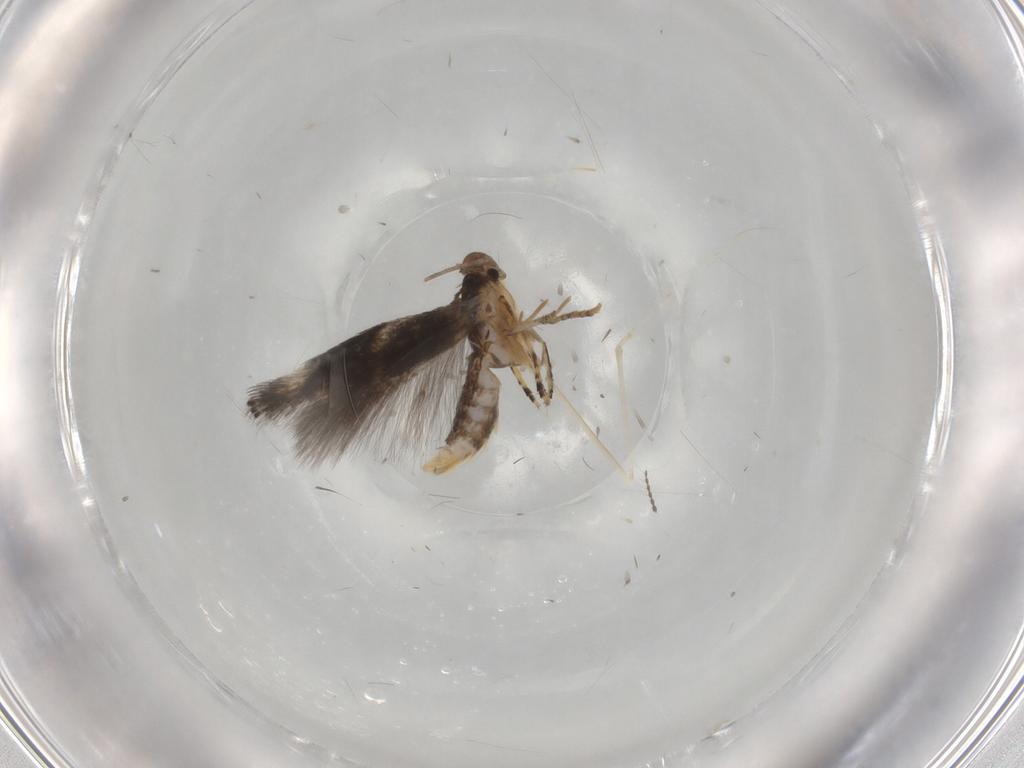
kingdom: Animalia
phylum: Arthropoda
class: Insecta
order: Lepidoptera
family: Elachistidae
